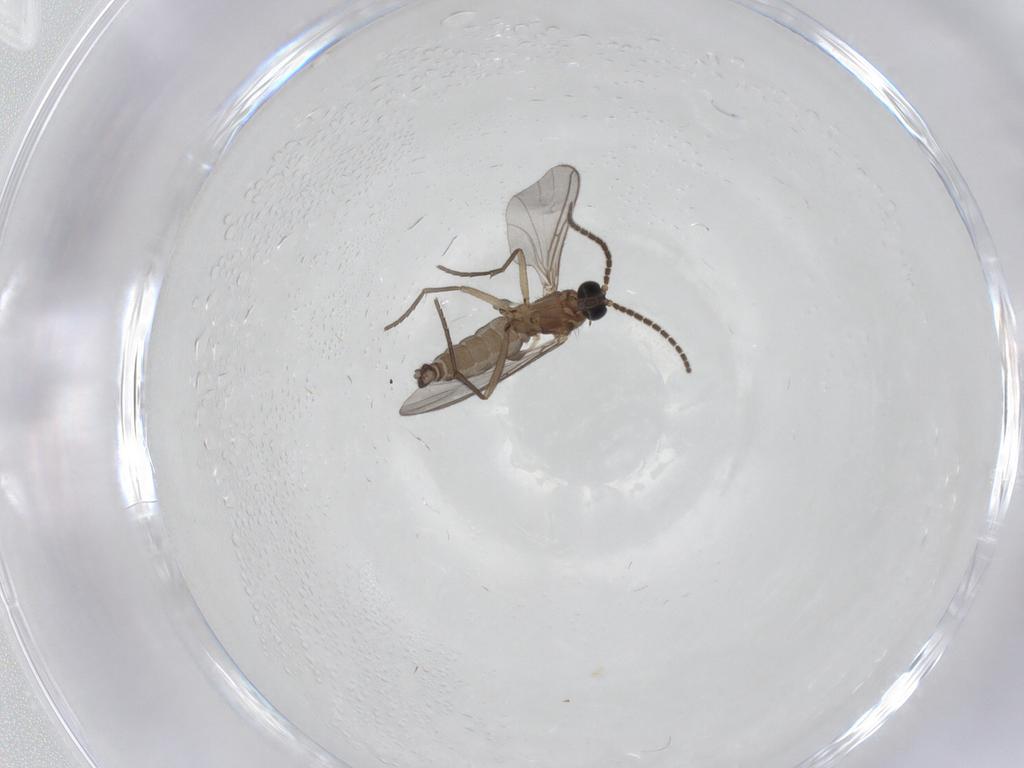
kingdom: Animalia
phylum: Arthropoda
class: Insecta
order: Diptera
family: Sciaridae
